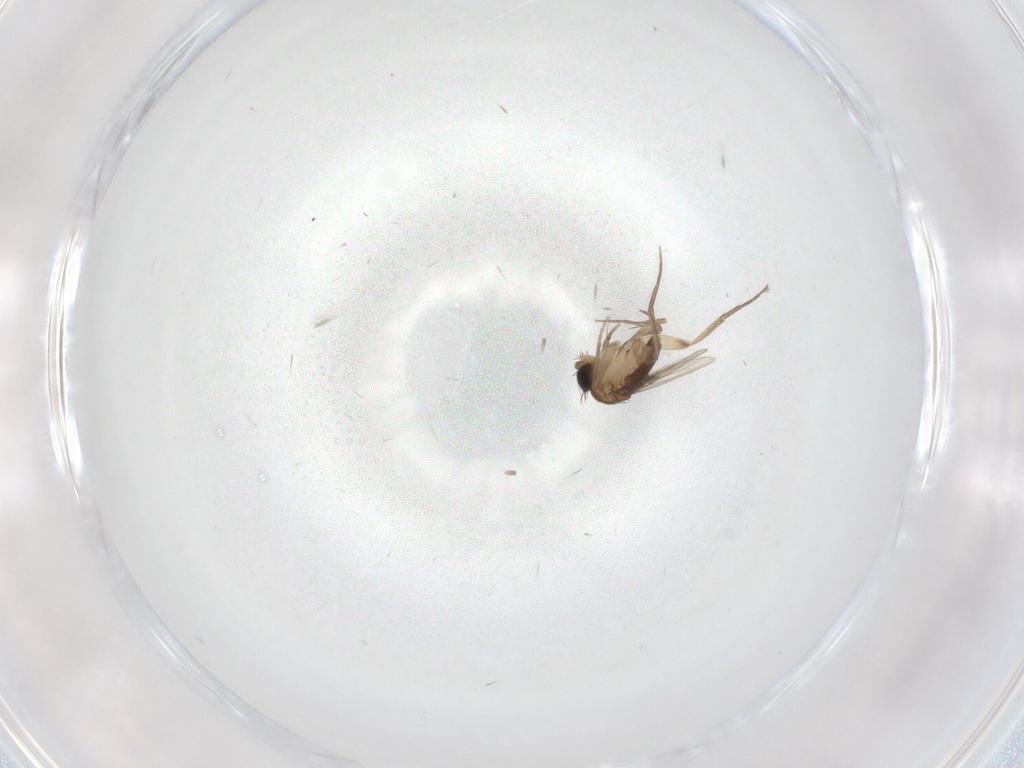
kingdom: Animalia
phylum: Arthropoda
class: Insecta
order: Diptera
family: Phoridae
